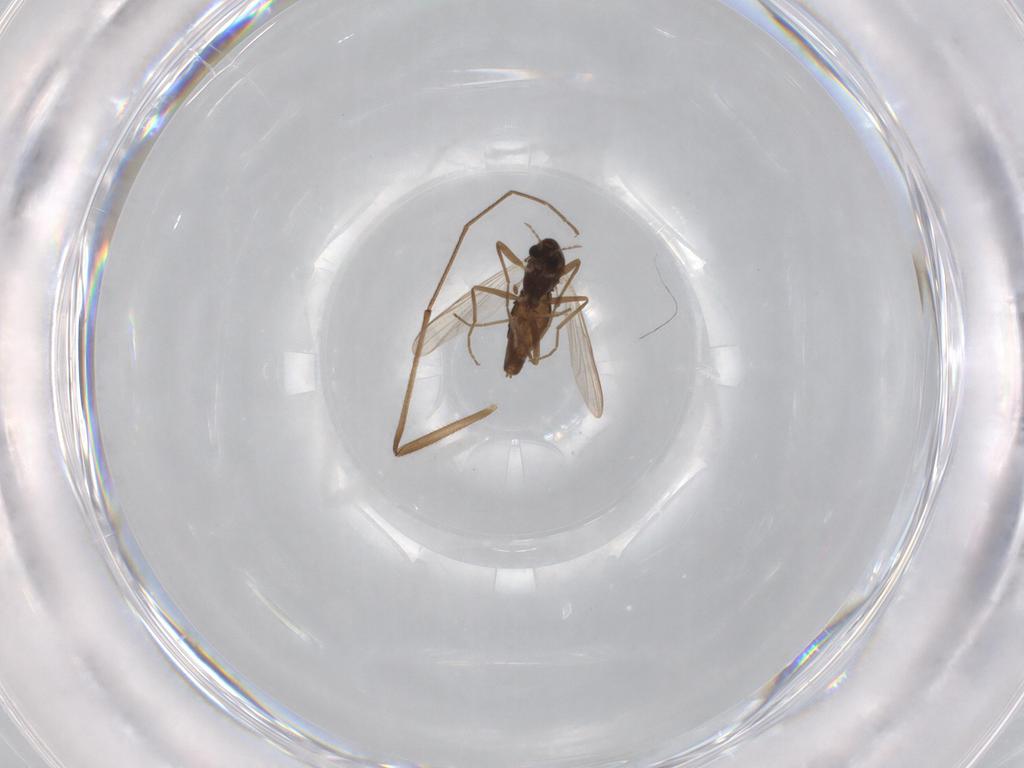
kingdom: Animalia
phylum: Arthropoda
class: Insecta
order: Diptera
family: Chironomidae
